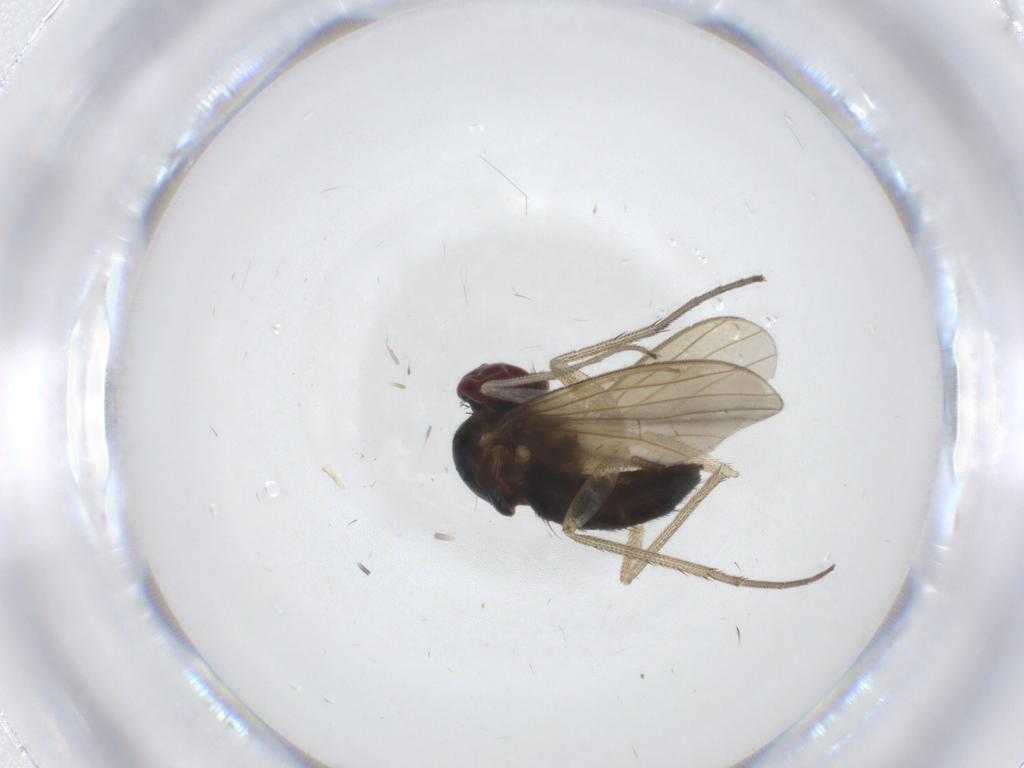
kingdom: Animalia
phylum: Arthropoda
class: Insecta
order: Diptera
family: Dolichopodidae
